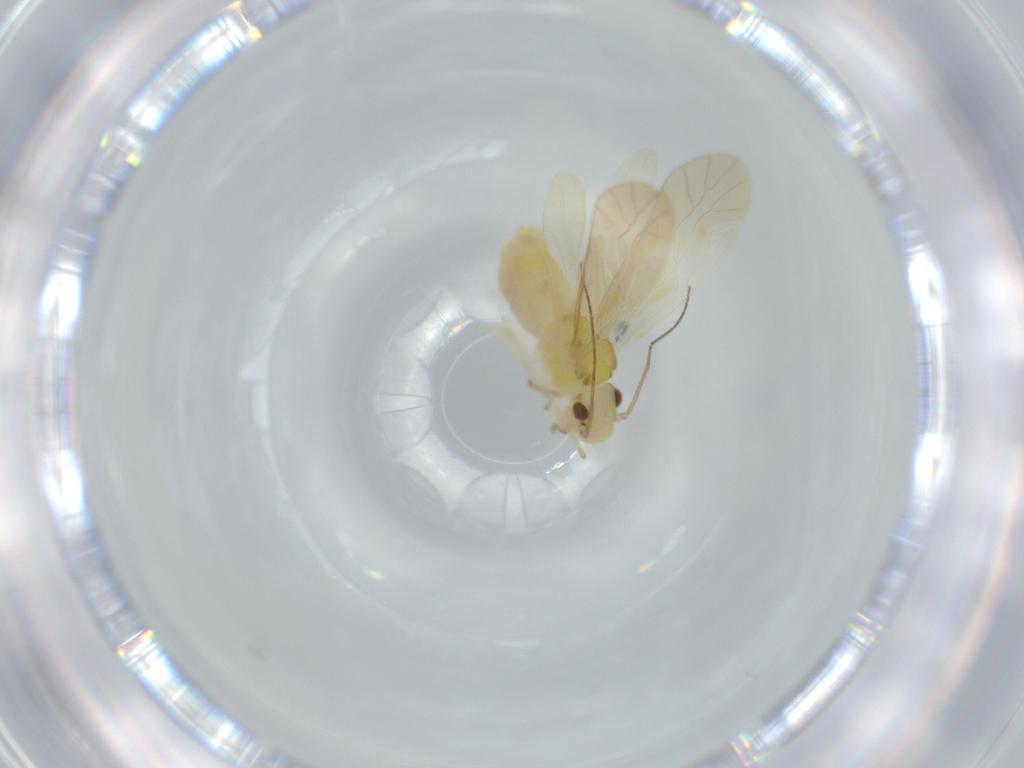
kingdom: Animalia
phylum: Arthropoda
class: Insecta
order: Psocodea
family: Caeciliusidae
